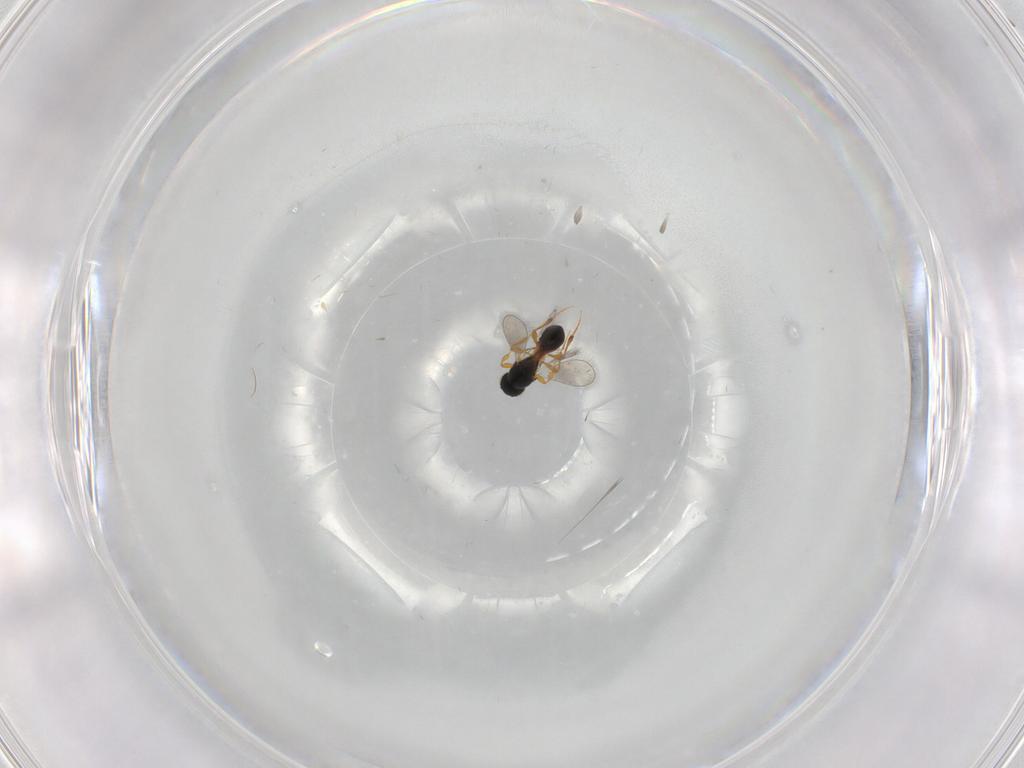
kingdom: Animalia
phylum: Arthropoda
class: Insecta
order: Hymenoptera
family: Platygastridae
